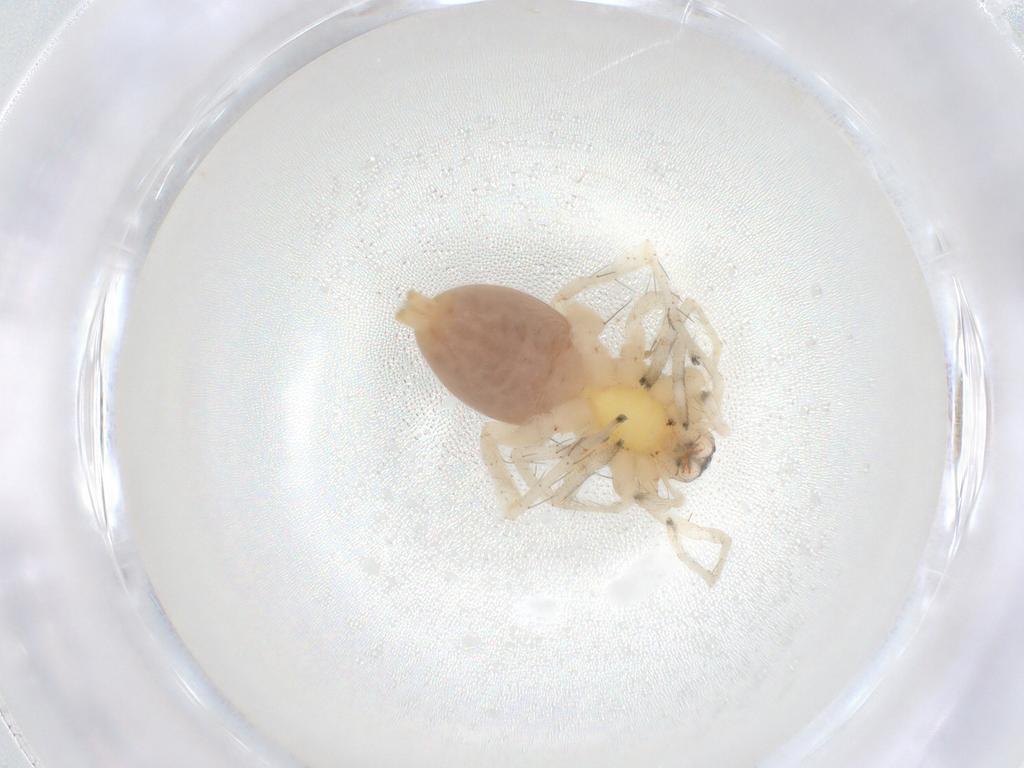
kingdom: Animalia
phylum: Arthropoda
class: Arachnida
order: Araneae
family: Clubionidae
